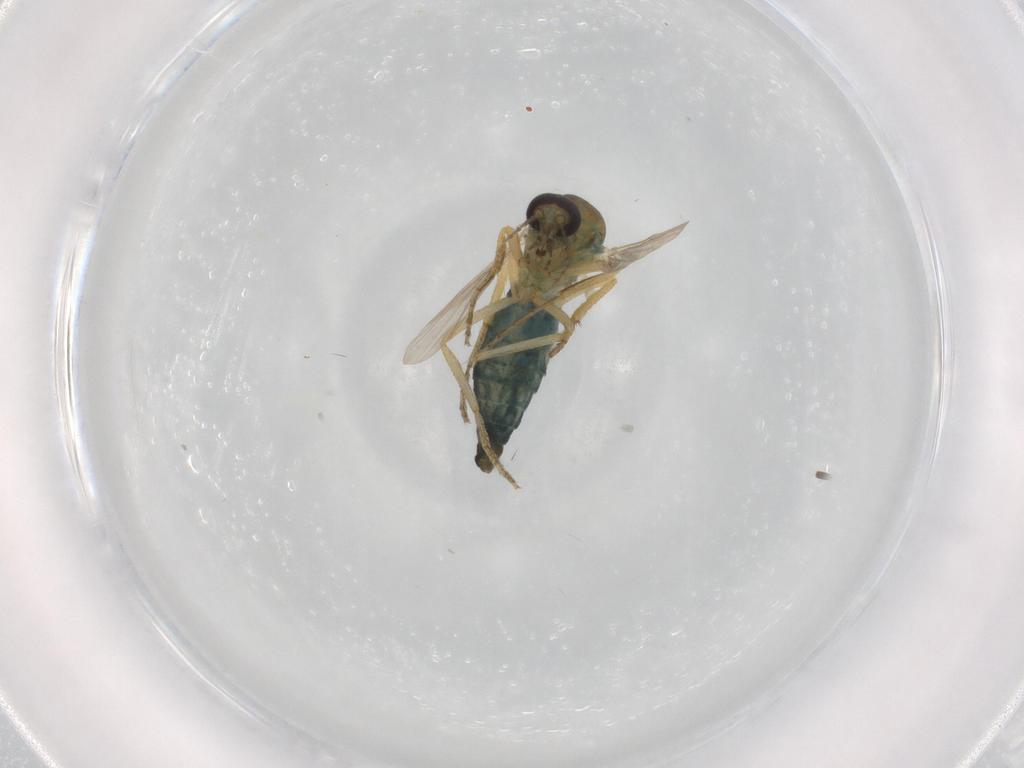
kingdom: Animalia
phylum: Arthropoda
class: Insecta
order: Diptera
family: Ceratopogonidae
